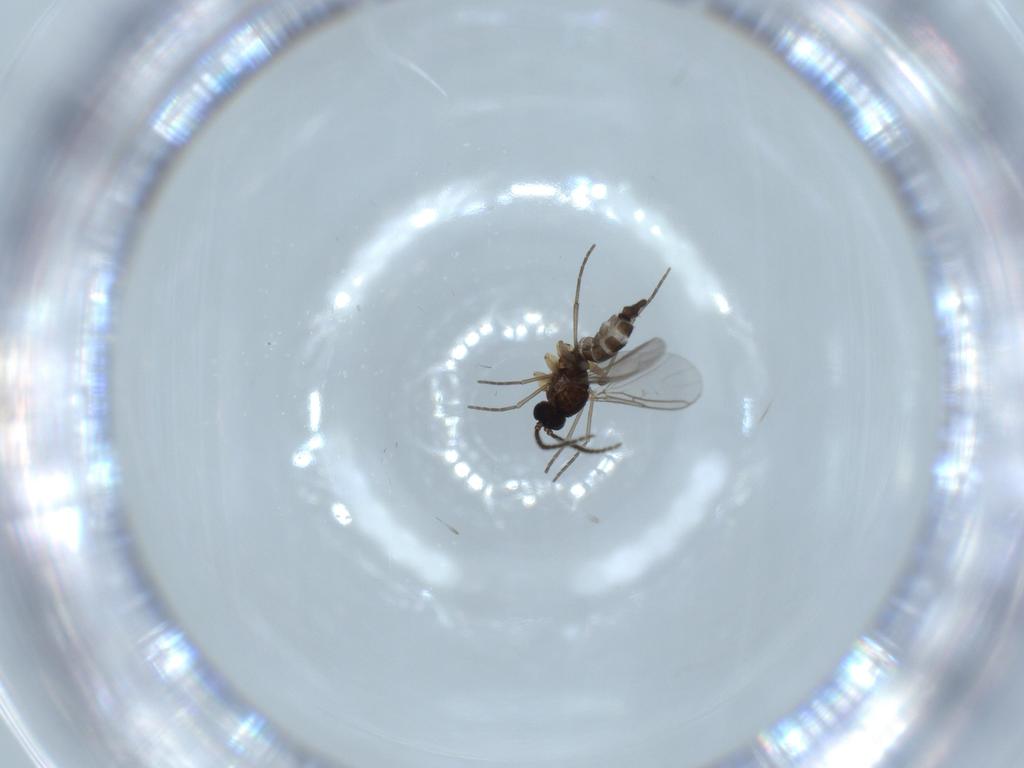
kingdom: Animalia
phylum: Arthropoda
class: Insecta
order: Diptera
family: Sciaridae
